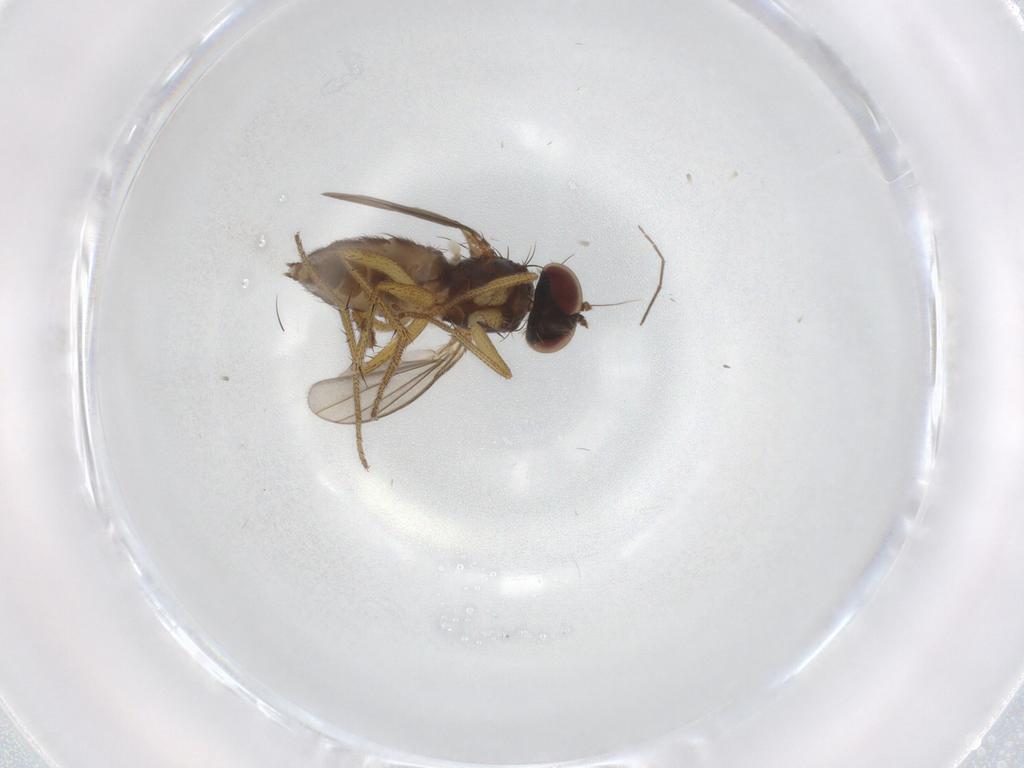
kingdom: Animalia
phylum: Arthropoda
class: Insecta
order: Diptera
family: Chironomidae
